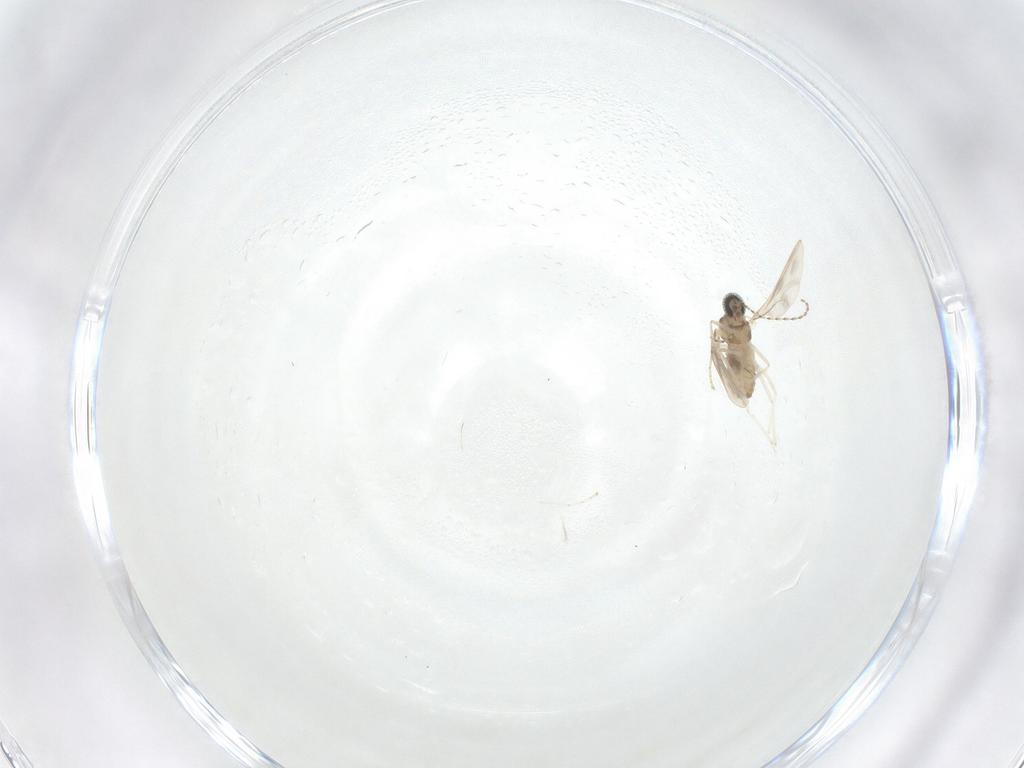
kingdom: Animalia
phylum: Arthropoda
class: Insecta
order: Diptera
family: Cecidomyiidae
